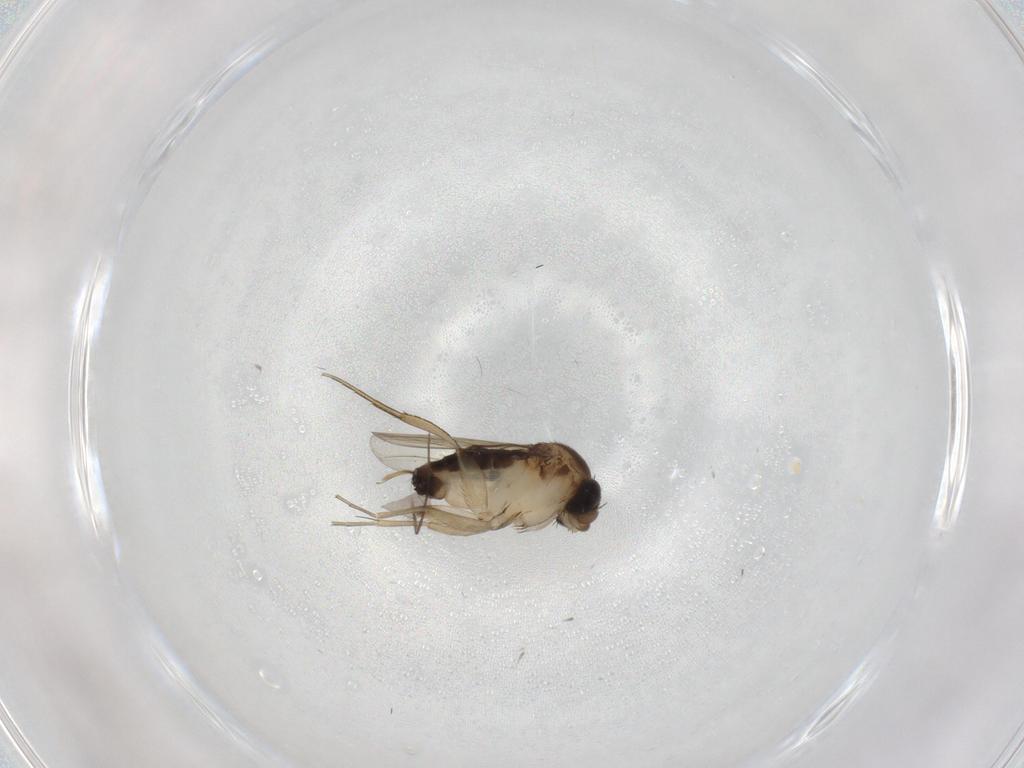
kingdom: Animalia
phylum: Arthropoda
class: Insecta
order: Diptera
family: Phoridae
